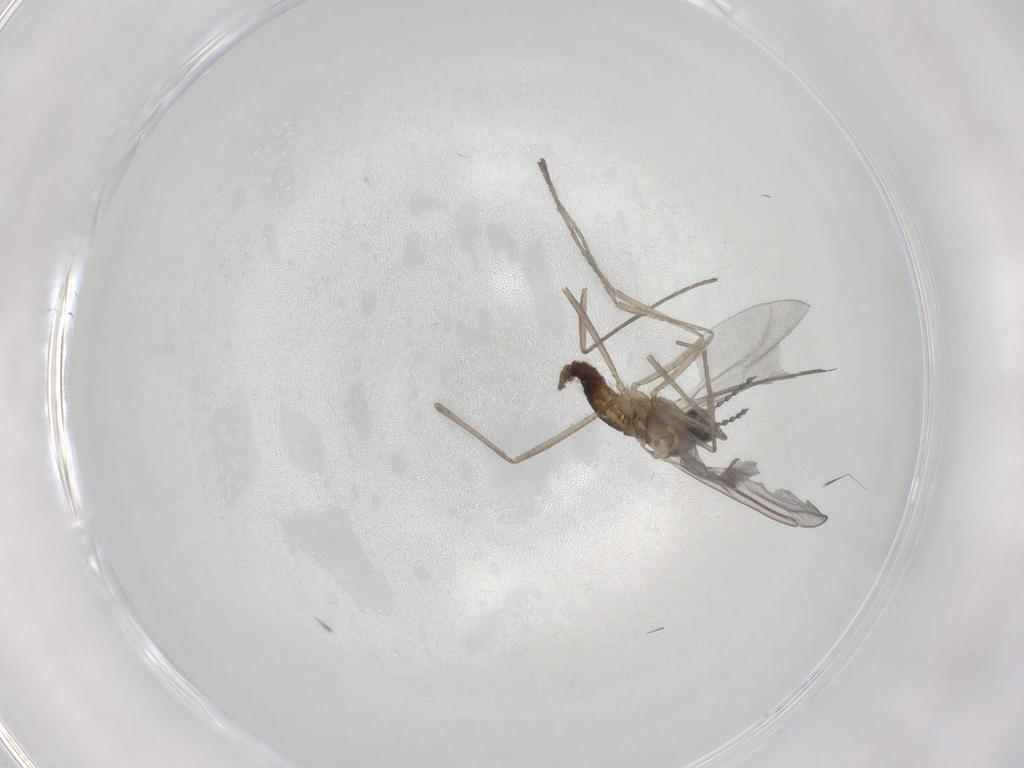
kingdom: Animalia
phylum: Arthropoda
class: Insecta
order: Diptera
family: Cecidomyiidae
